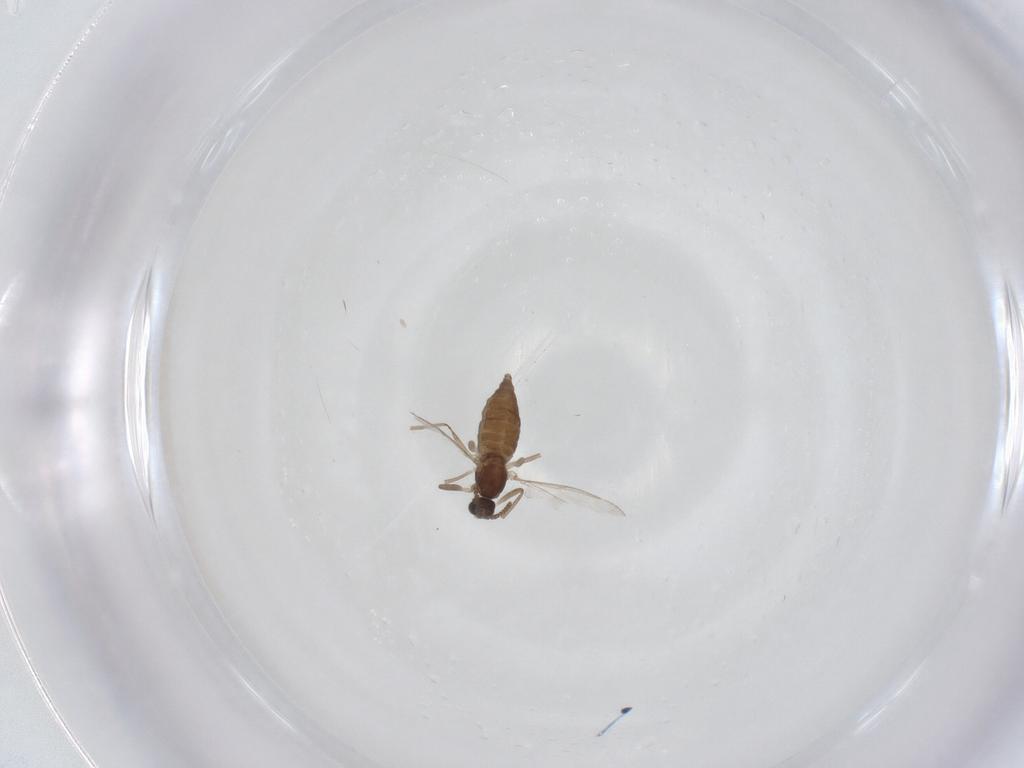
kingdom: Animalia
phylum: Arthropoda
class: Insecta
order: Diptera
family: Cecidomyiidae
